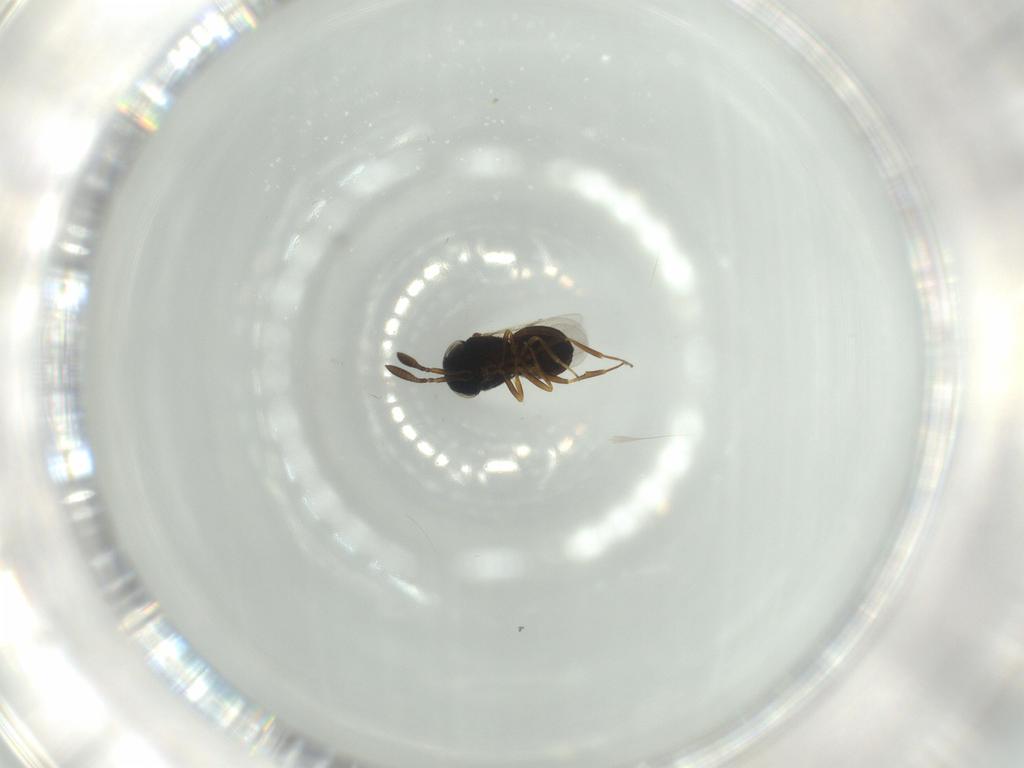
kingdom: Animalia
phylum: Arthropoda
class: Insecta
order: Hymenoptera
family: Scelionidae
